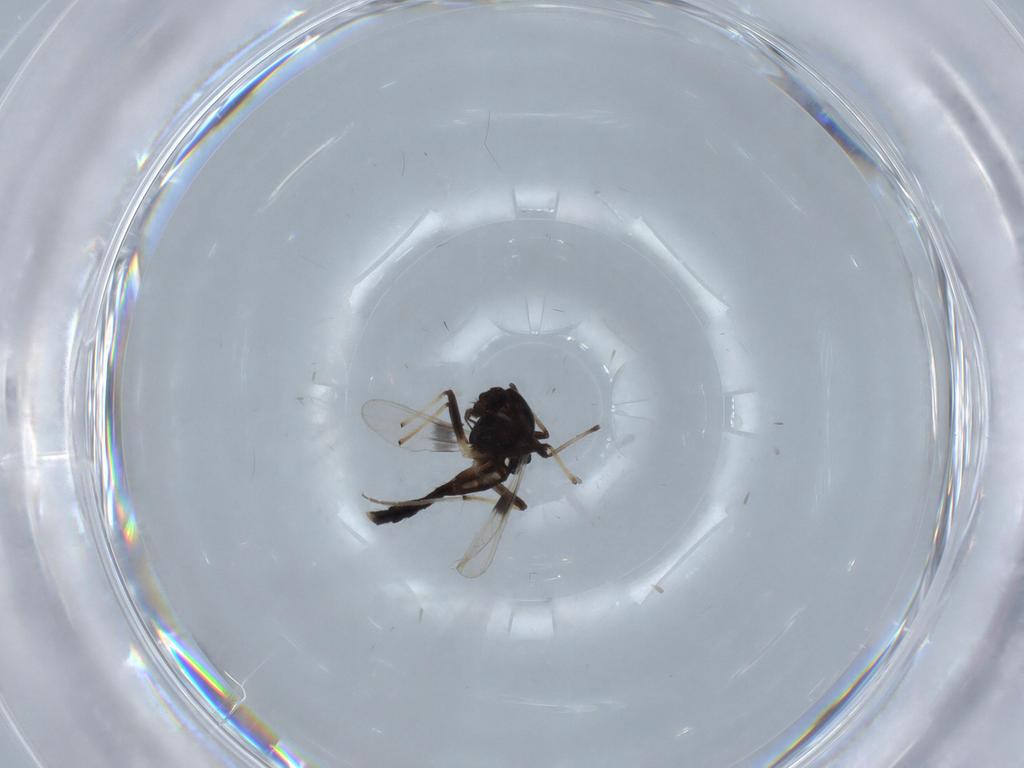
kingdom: Animalia
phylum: Arthropoda
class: Insecta
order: Diptera
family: Chironomidae
